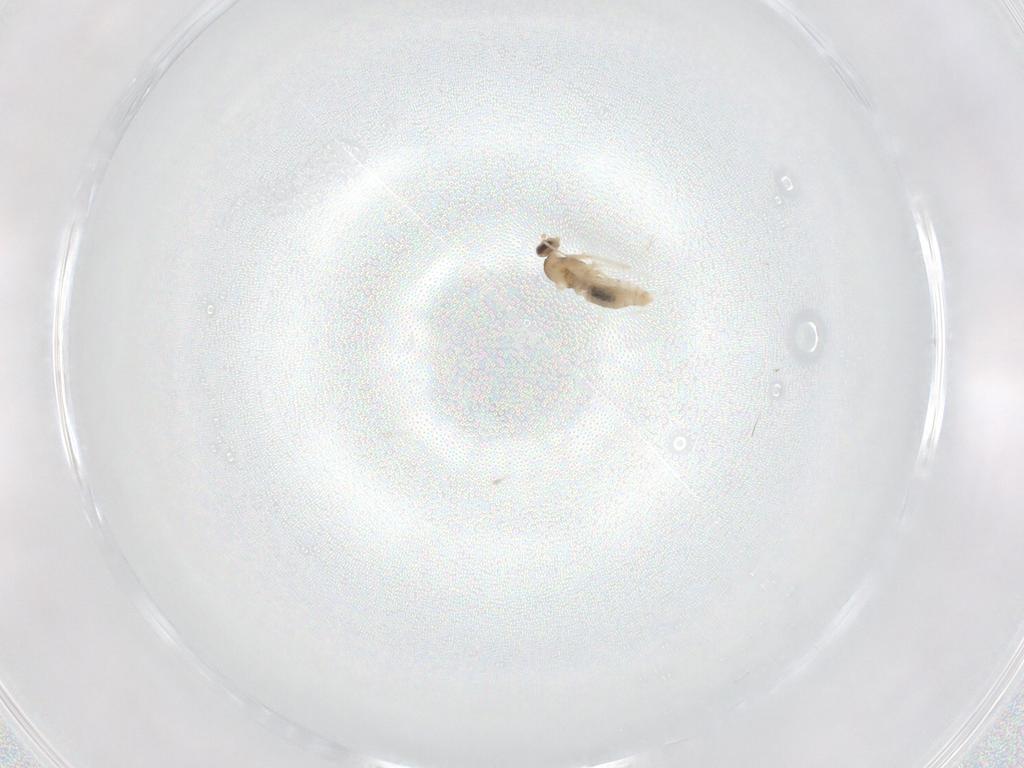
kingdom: Animalia
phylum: Arthropoda
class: Insecta
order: Diptera
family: Cecidomyiidae
